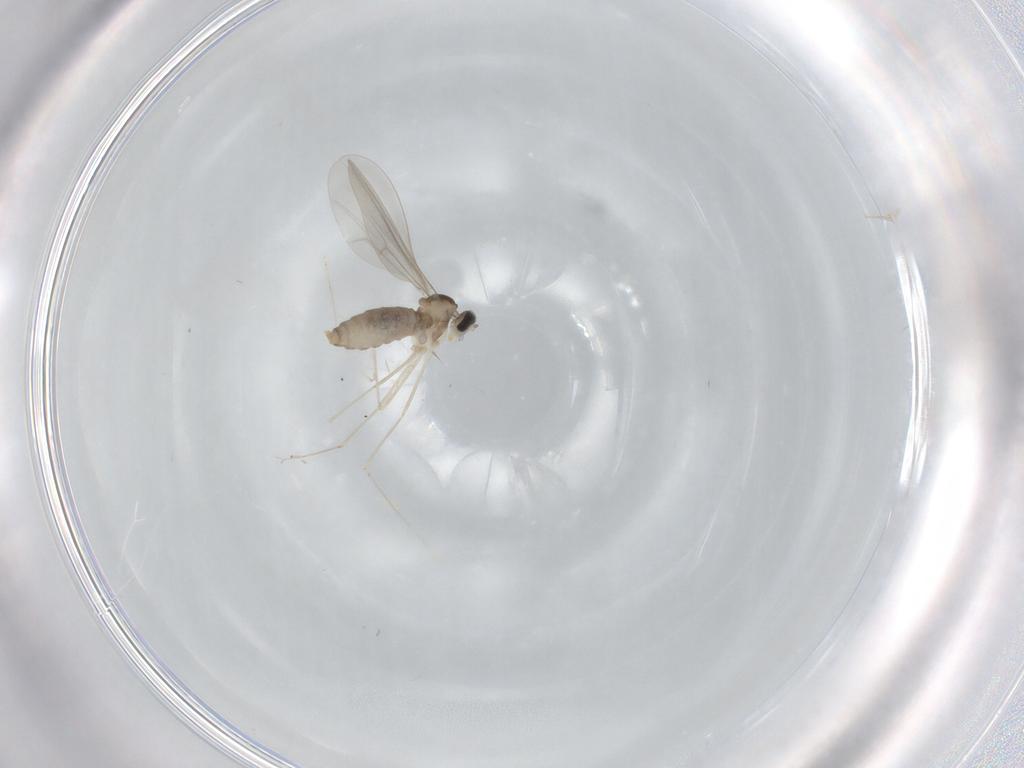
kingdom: Animalia
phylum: Arthropoda
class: Insecta
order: Diptera
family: Cecidomyiidae
